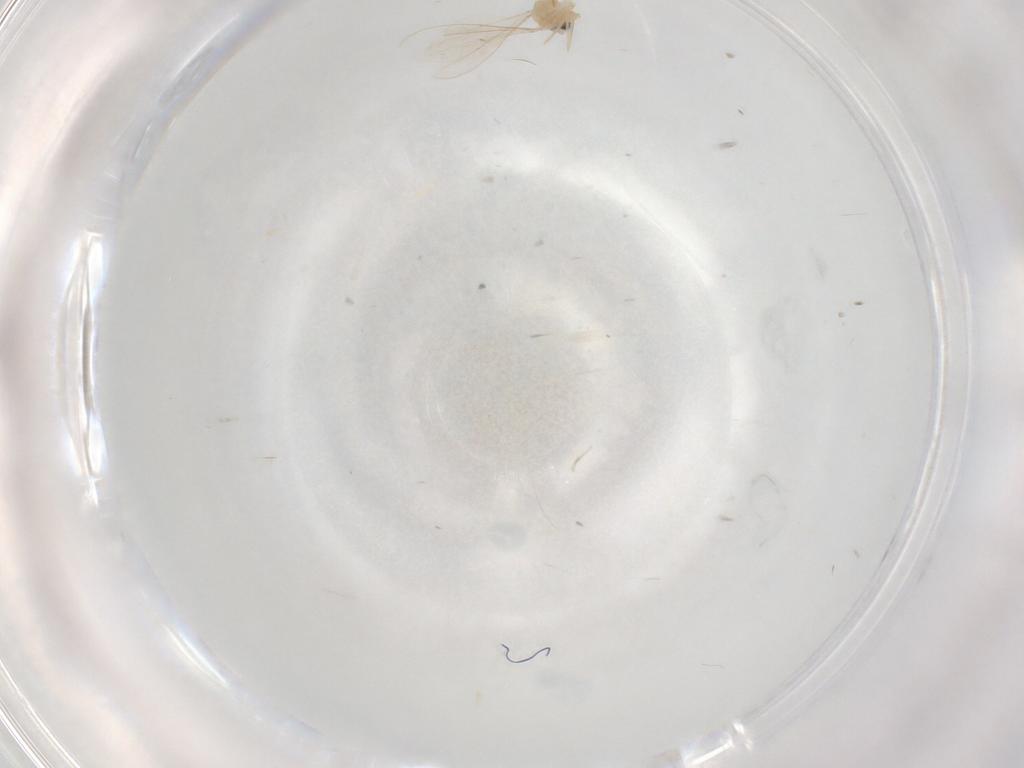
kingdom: Animalia
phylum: Arthropoda
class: Insecta
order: Diptera
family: Cecidomyiidae
